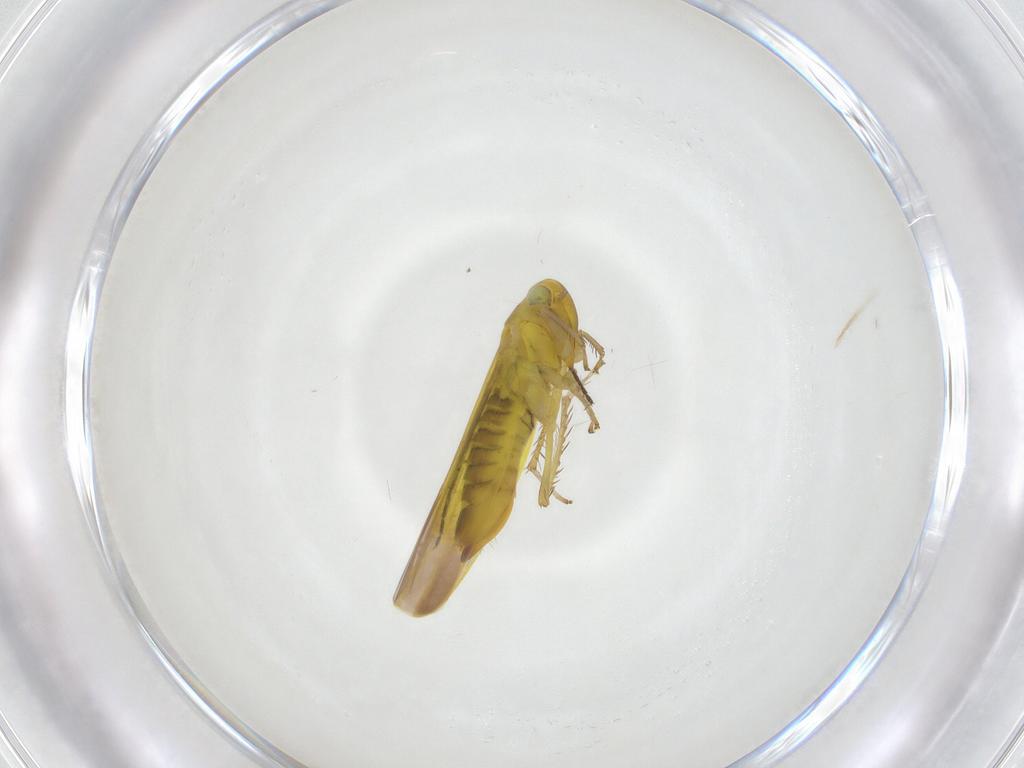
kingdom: Animalia
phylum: Arthropoda
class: Insecta
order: Hemiptera
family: Cicadellidae
